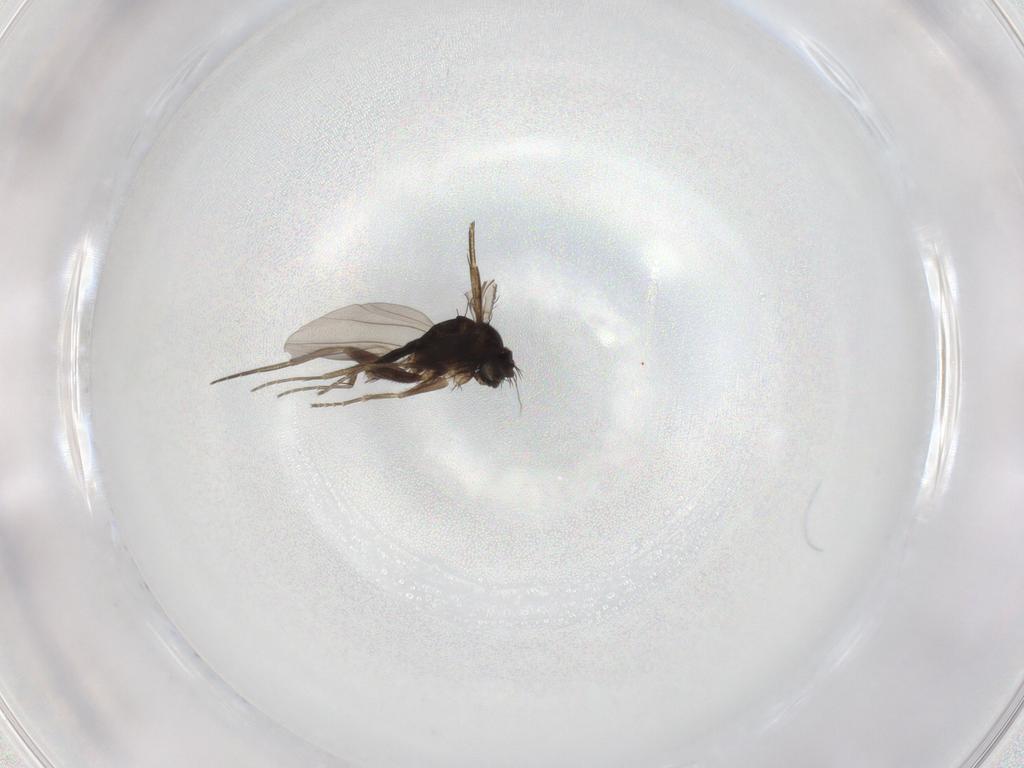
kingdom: Animalia
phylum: Arthropoda
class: Insecta
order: Diptera
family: Phoridae
